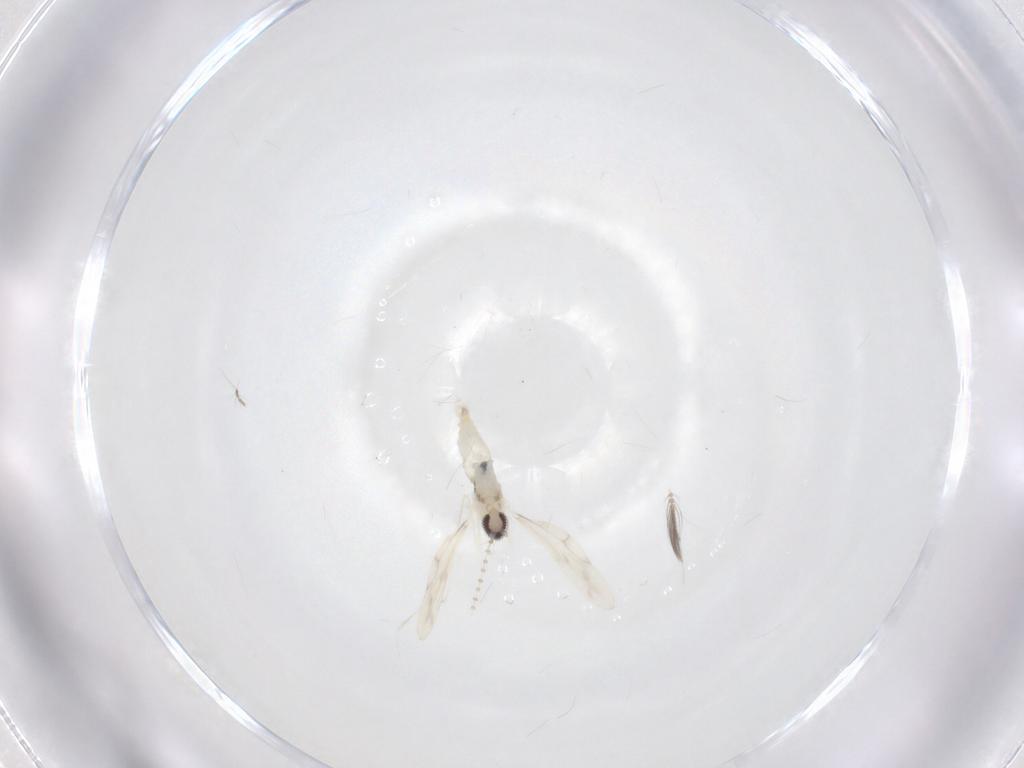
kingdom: Animalia
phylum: Arthropoda
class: Insecta
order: Diptera
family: Cecidomyiidae
